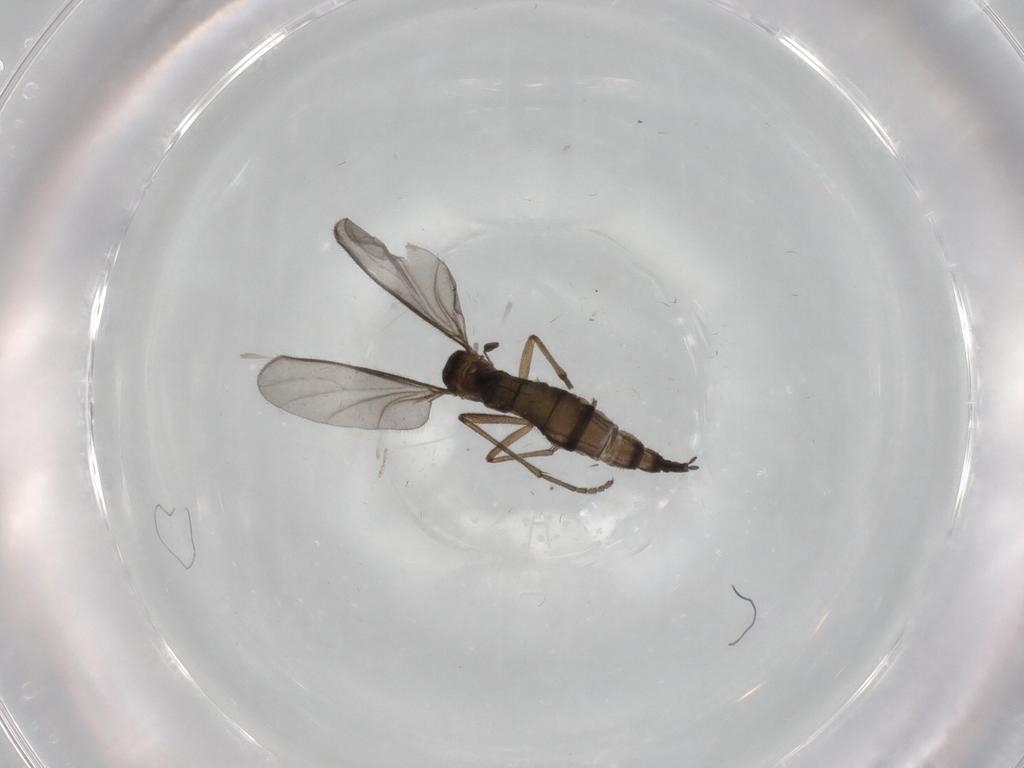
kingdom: Animalia
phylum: Arthropoda
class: Insecta
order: Diptera
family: Sciaridae
